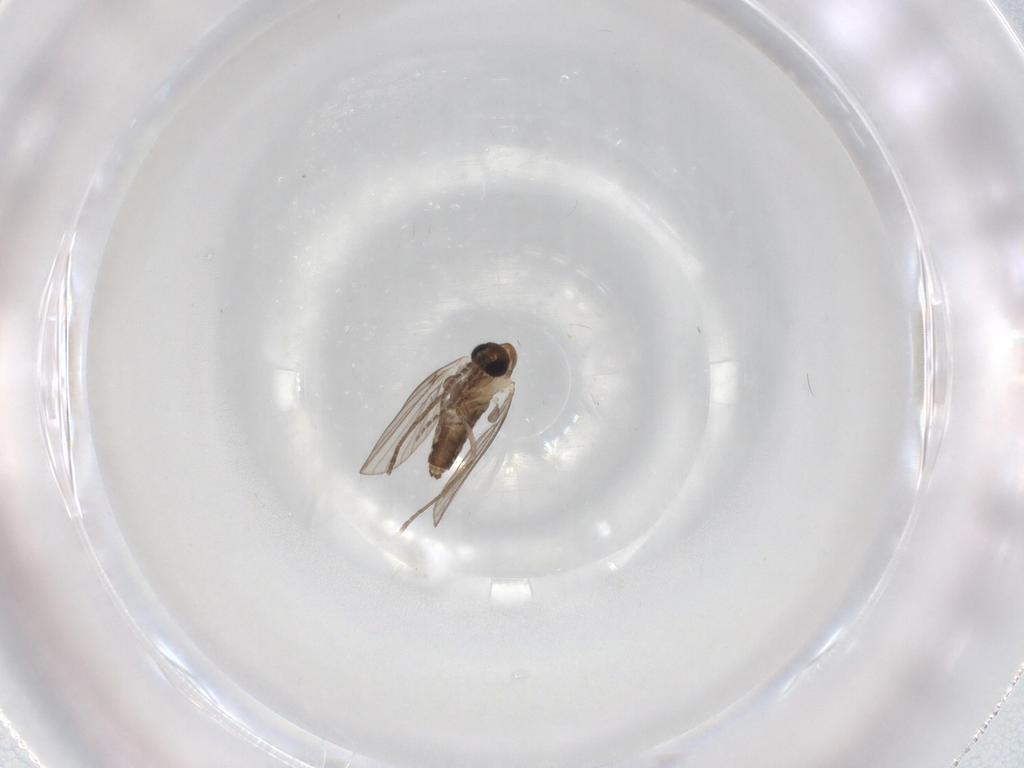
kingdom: Animalia
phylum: Arthropoda
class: Insecta
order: Diptera
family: Psychodidae
